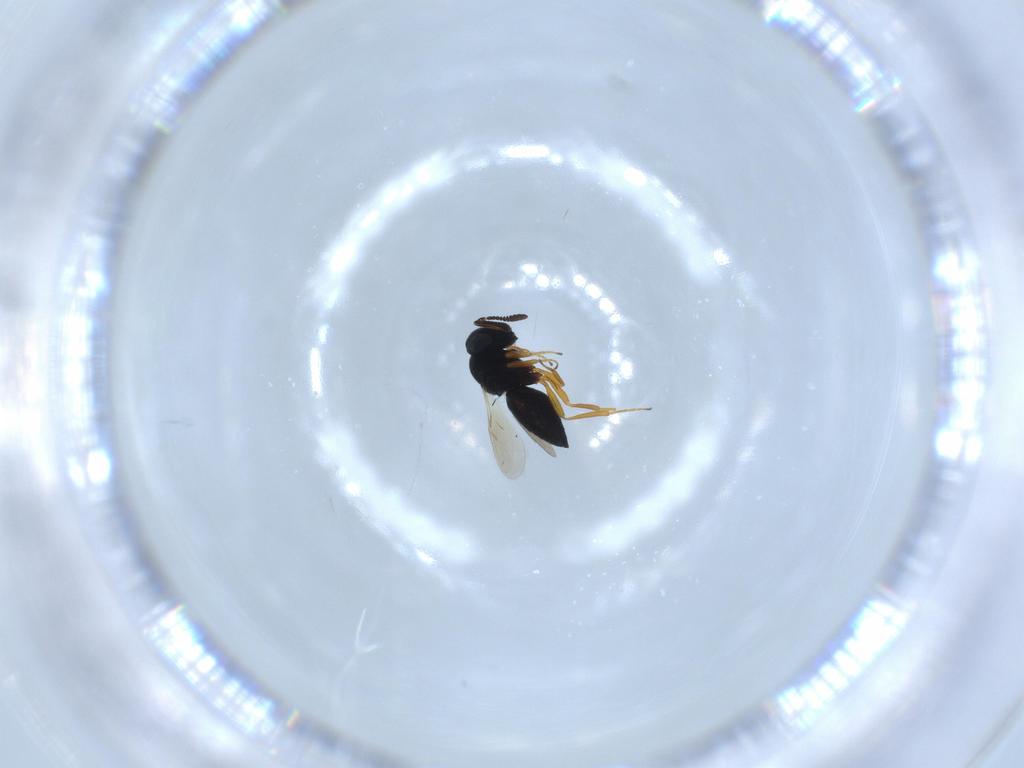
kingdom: Animalia
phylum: Arthropoda
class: Insecta
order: Hymenoptera
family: Scelionidae
